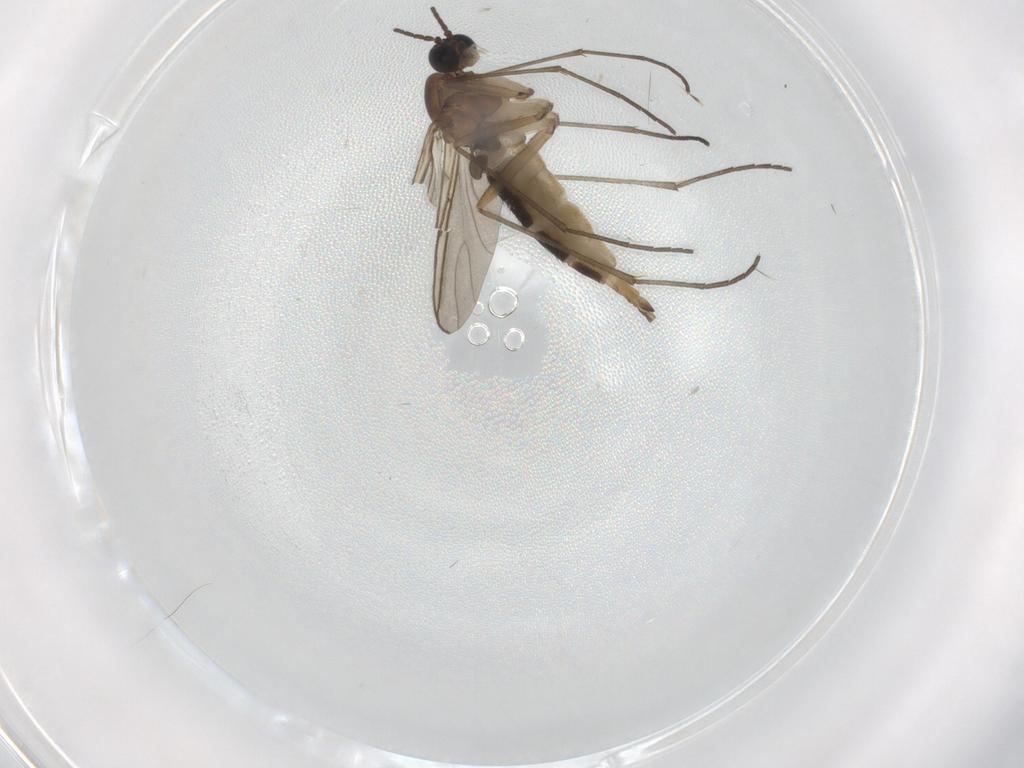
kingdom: Animalia
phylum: Arthropoda
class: Insecta
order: Diptera
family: Sciaridae
